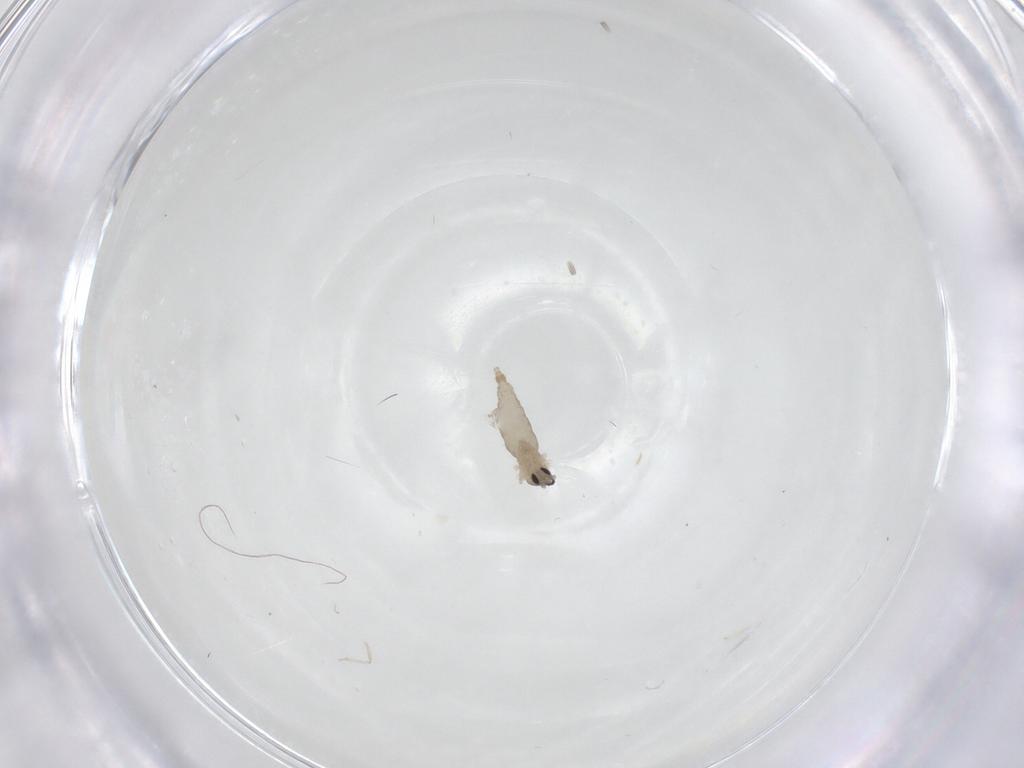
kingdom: Animalia
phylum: Arthropoda
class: Insecta
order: Diptera
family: Cecidomyiidae
